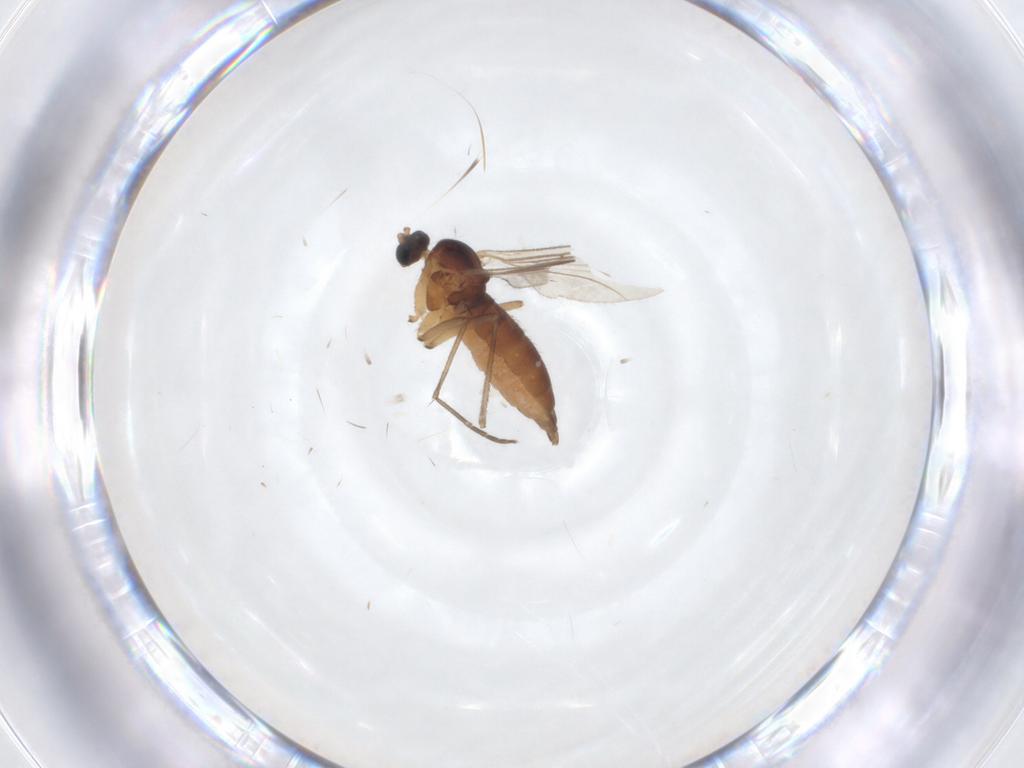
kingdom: Animalia
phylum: Arthropoda
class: Insecta
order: Diptera
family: Sciaridae
